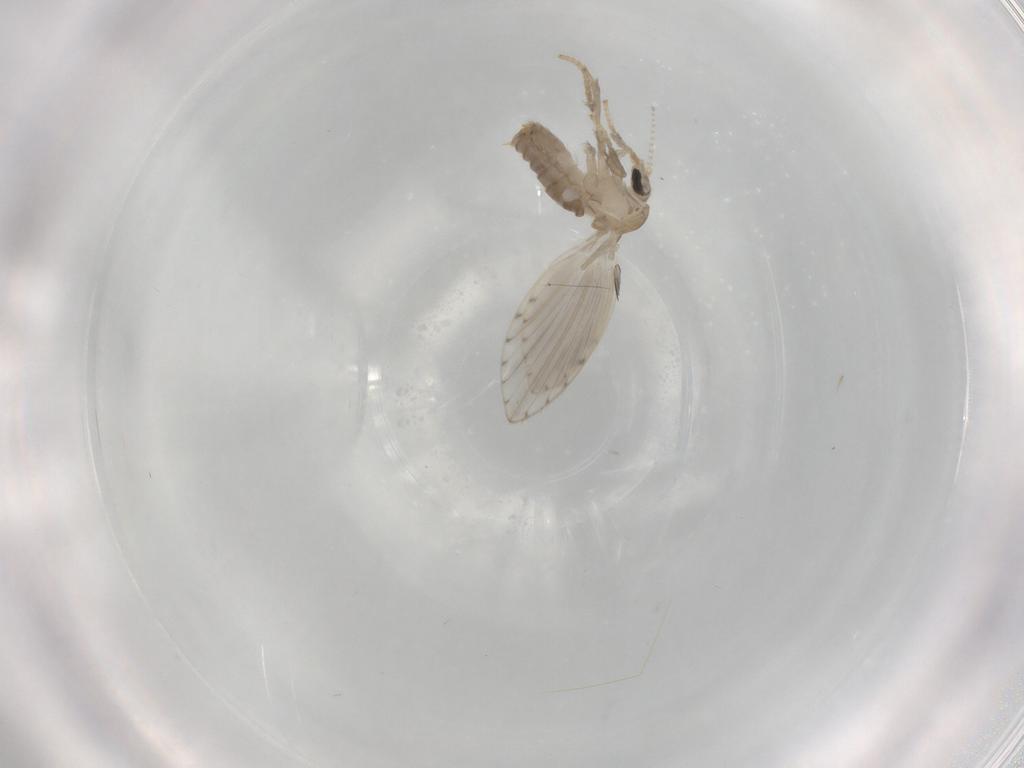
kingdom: Animalia
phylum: Arthropoda
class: Insecta
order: Diptera
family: Psychodidae
